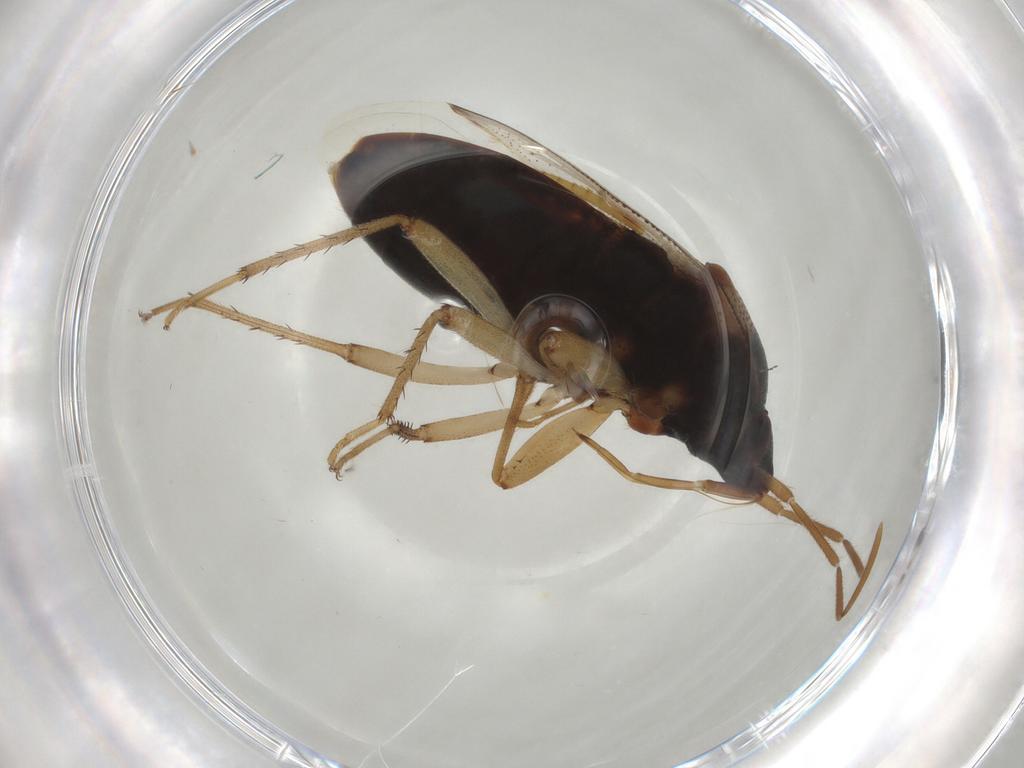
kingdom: Animalia
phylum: Arthropoda
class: Insecta
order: Hemiptera
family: Rhyparochromidae
